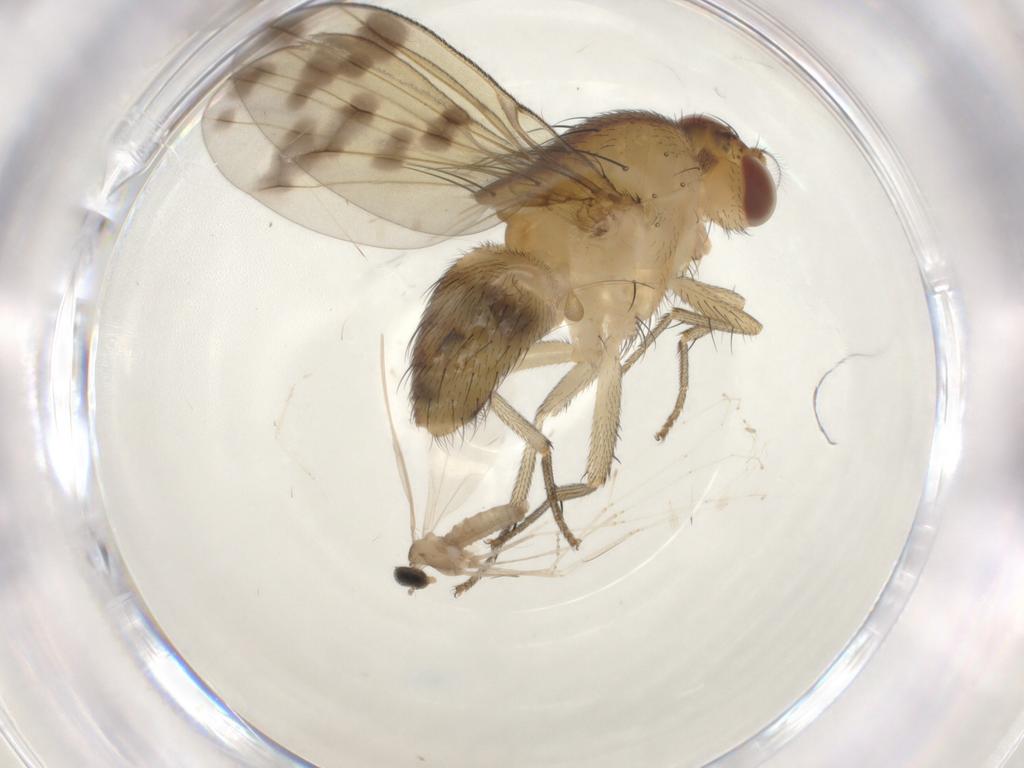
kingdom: Animalia
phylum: Arthropoda
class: Insecta
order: Diptera
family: Cecidomyiidae
